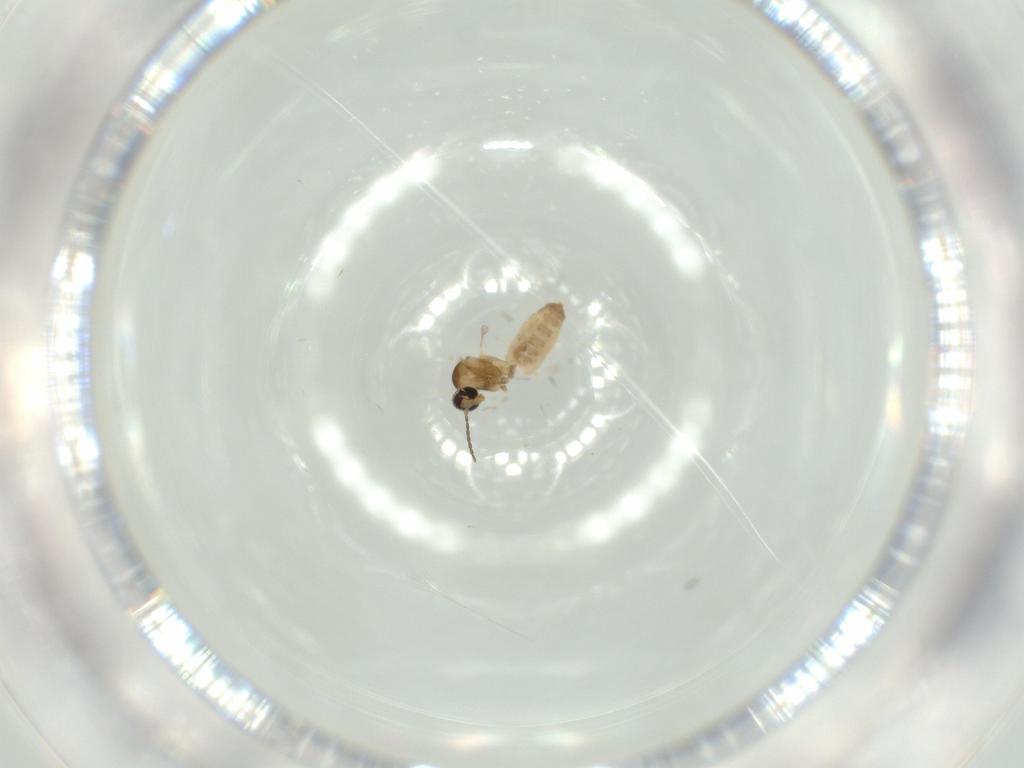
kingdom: Animalia
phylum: Arthropoda
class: Insecta
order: Diptera
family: Cecidomyiidae
